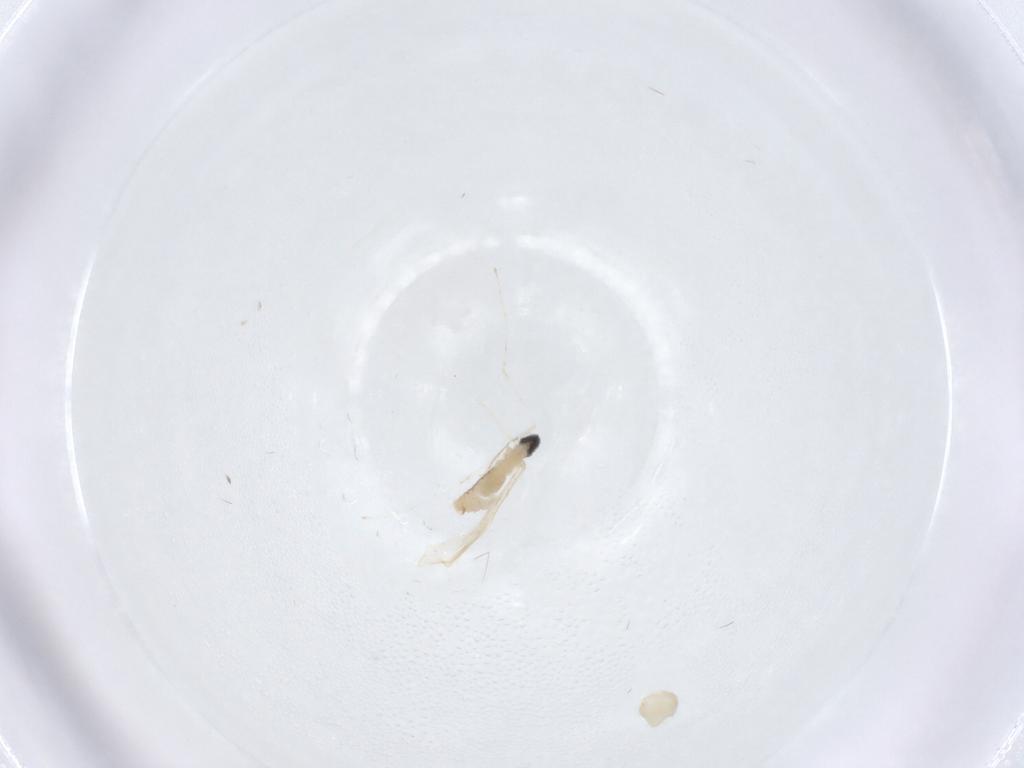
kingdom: Animalia
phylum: Arthropoda
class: Insecta
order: Diptera
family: Cecidomyiidae
